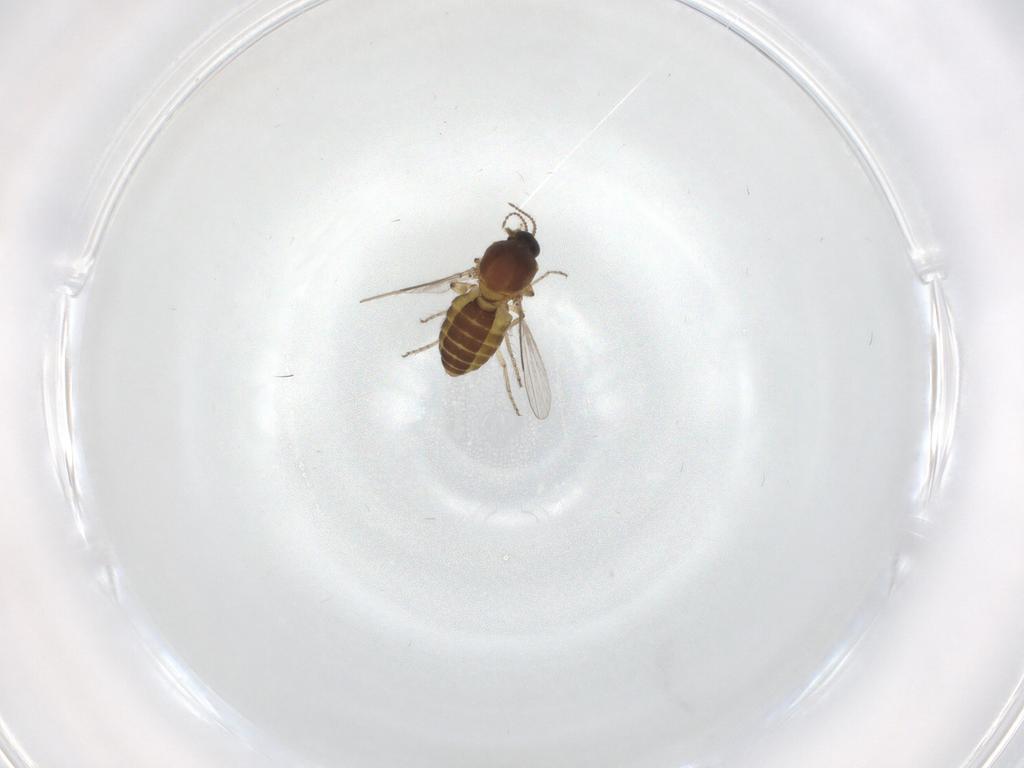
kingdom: Animalia
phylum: Arthropoda
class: Insecta
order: Diptera
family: Ceratopogonidae
